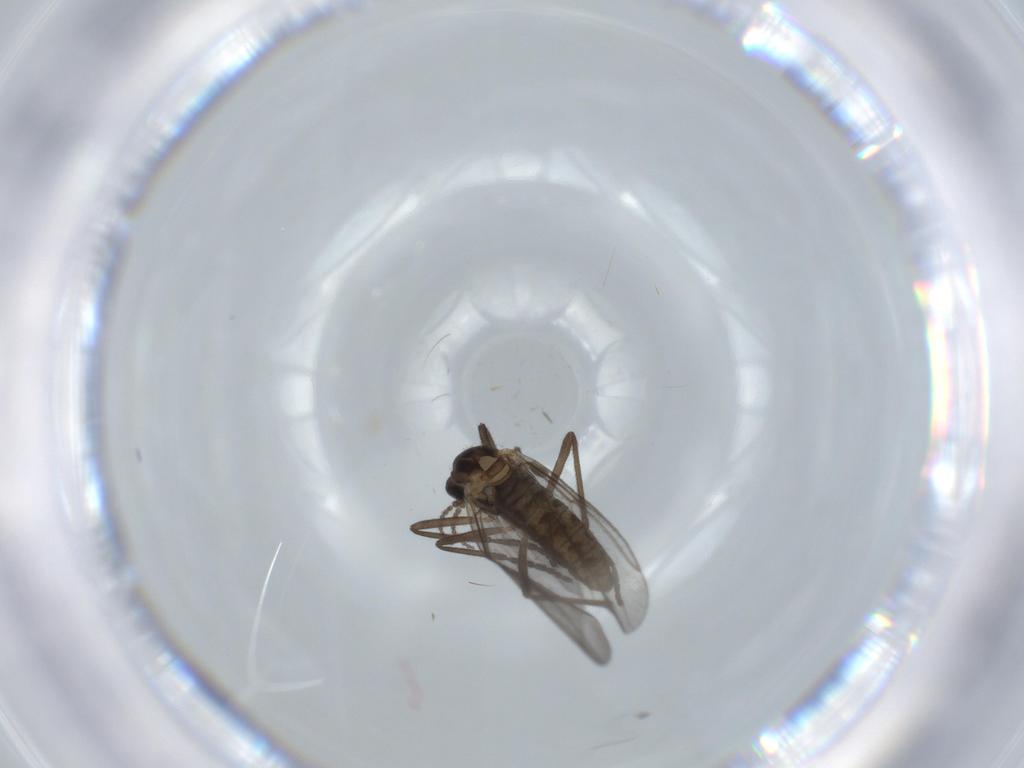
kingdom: Animalia
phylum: Arthropoda
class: Insecta
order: Diptera
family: Cecidomyiidae
